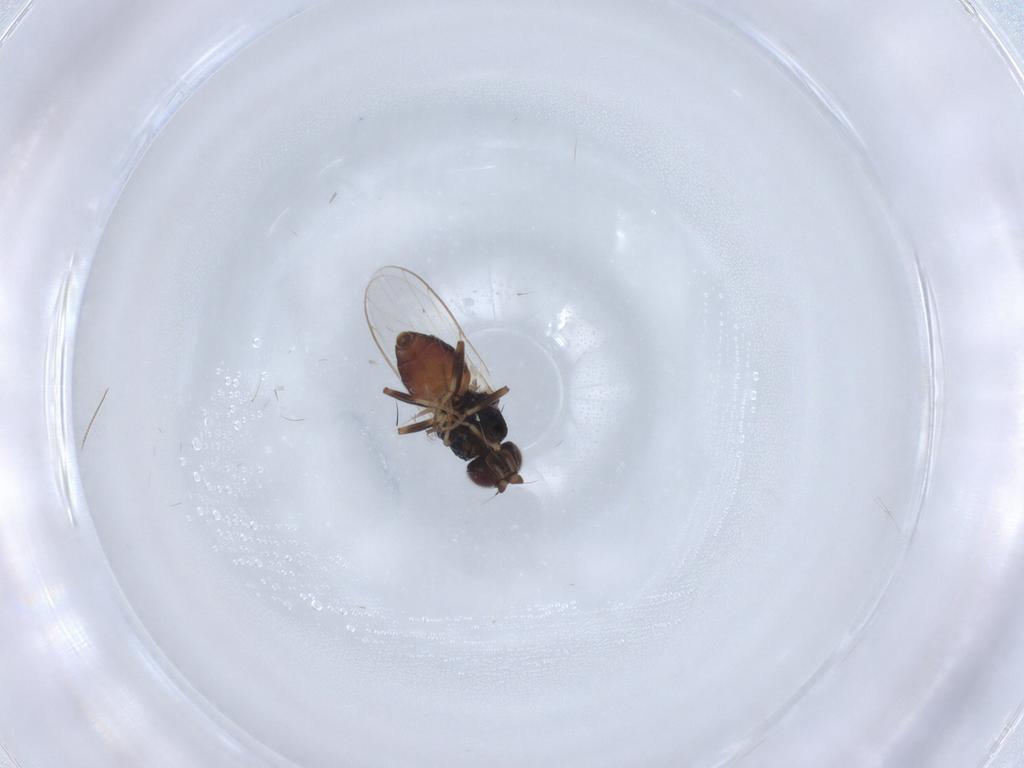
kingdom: Animalia
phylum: Arthropoda
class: Insecta
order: Diptera
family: Chloropidae
